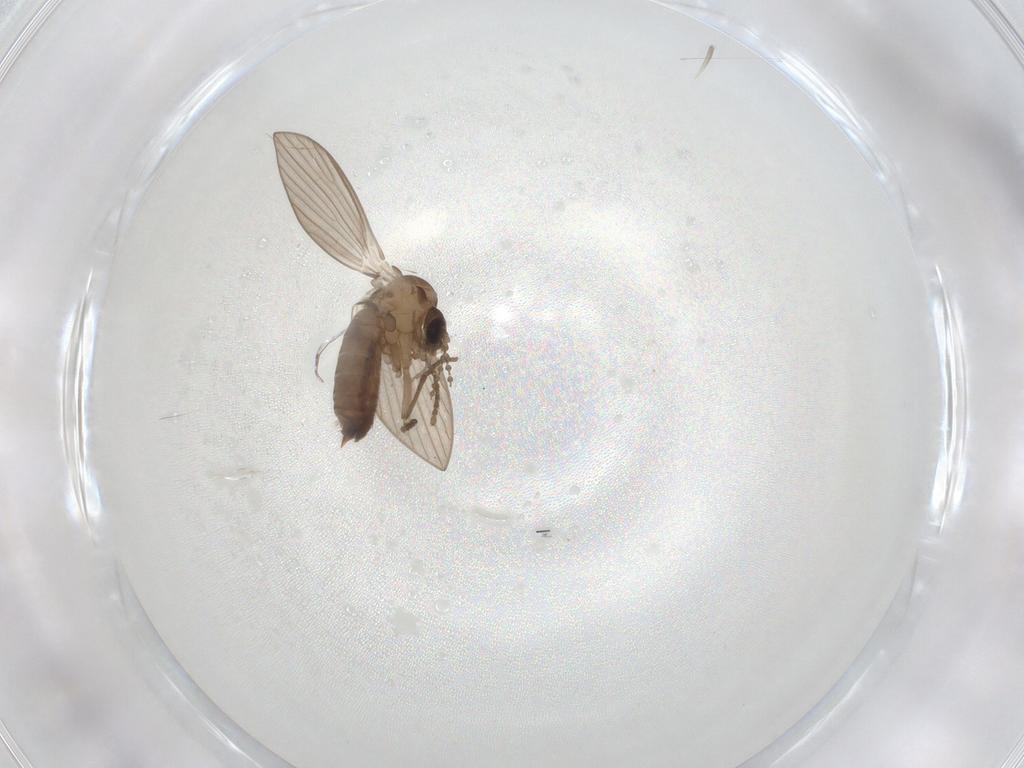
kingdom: Animalia
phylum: Arthropoda
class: Insecta
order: Diptera
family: Psychodidae
